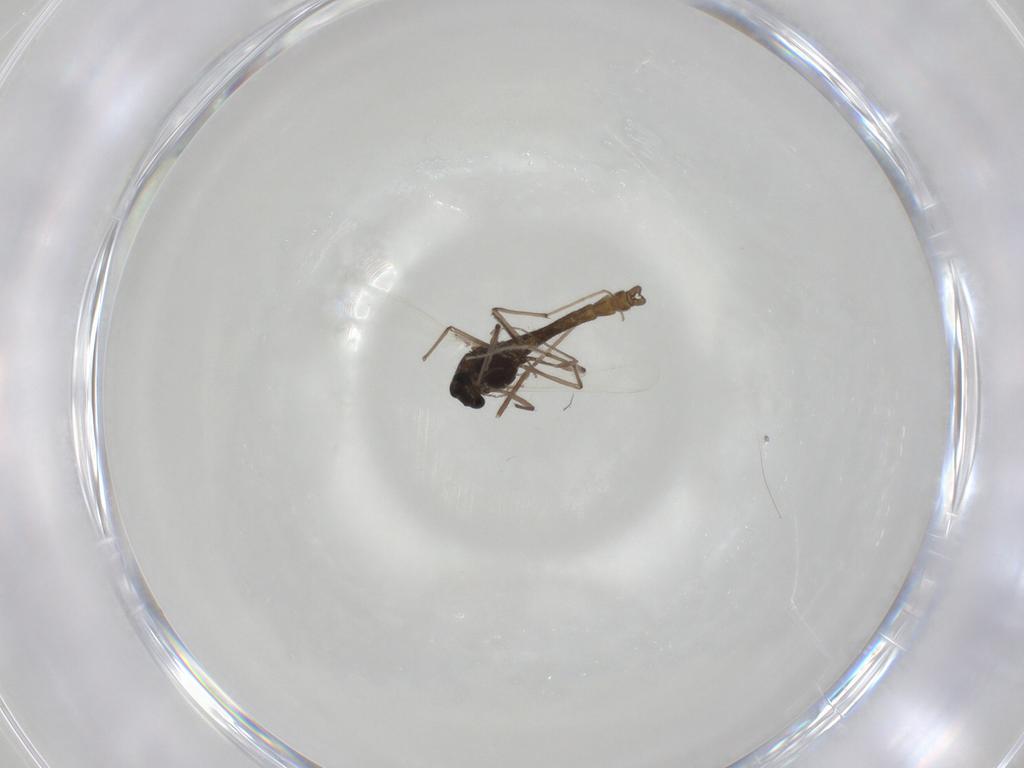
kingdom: Animalia
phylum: Arthropoda
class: Insecta
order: Diptera
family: Chironomidae
